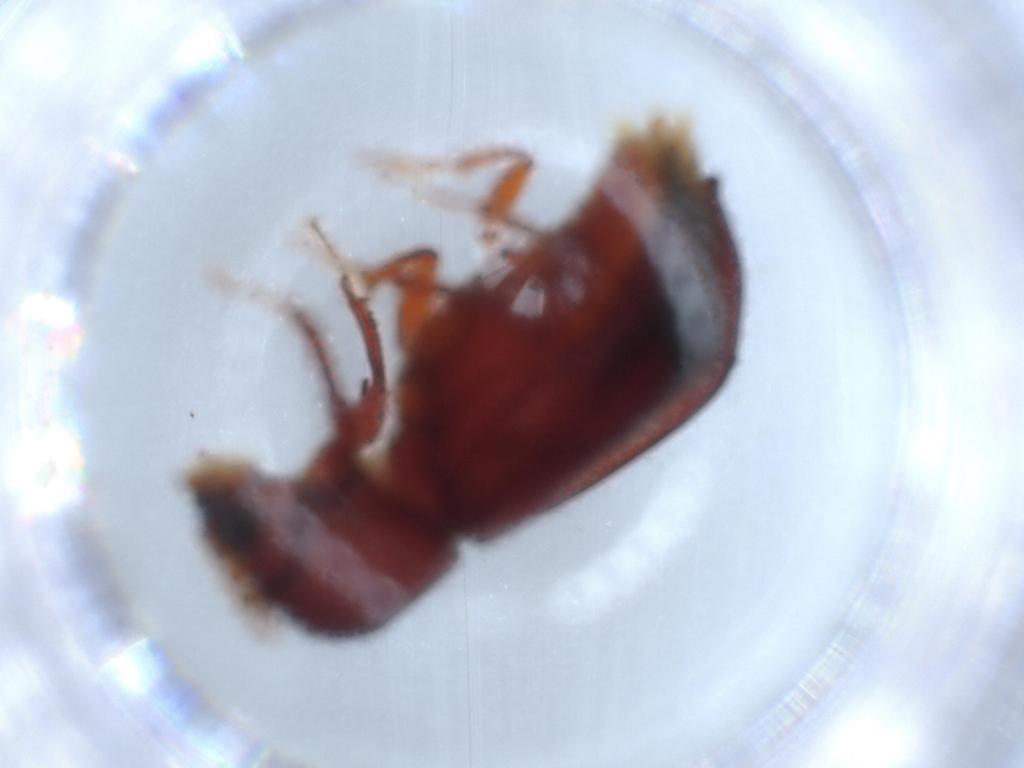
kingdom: Animalia
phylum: Arthropoda
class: Insecta
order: Coleoptera
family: Bostrichidae
